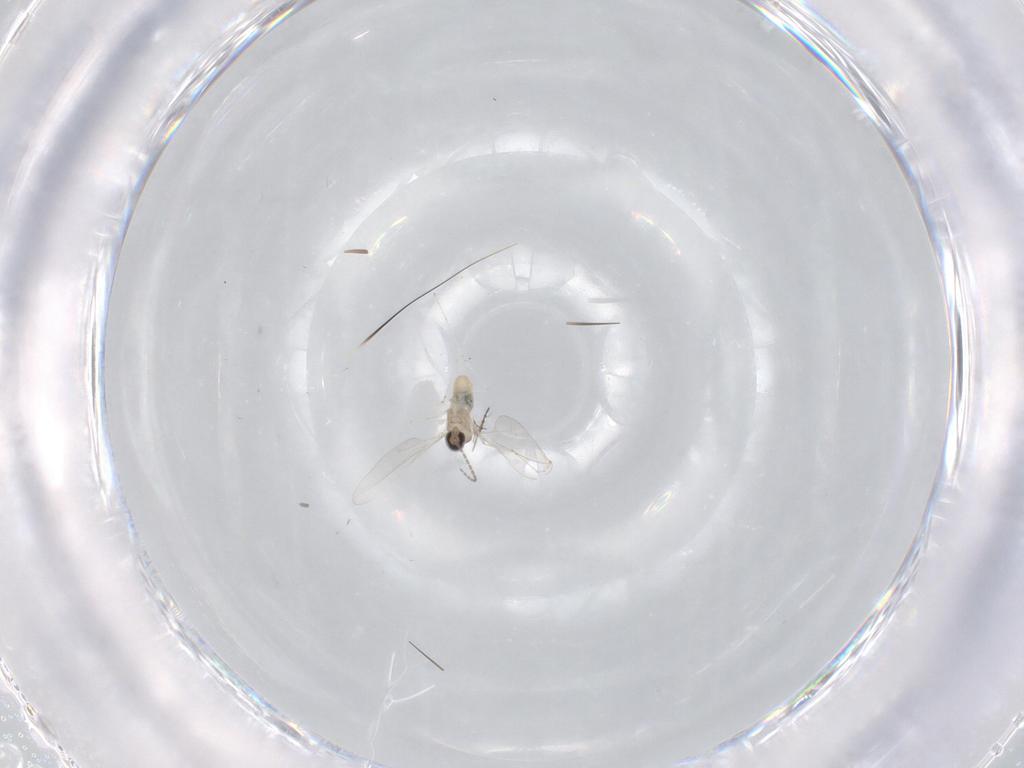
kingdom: Animalia
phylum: Arthropoda
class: Insecta
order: Diptera
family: Cecidomyiidae
